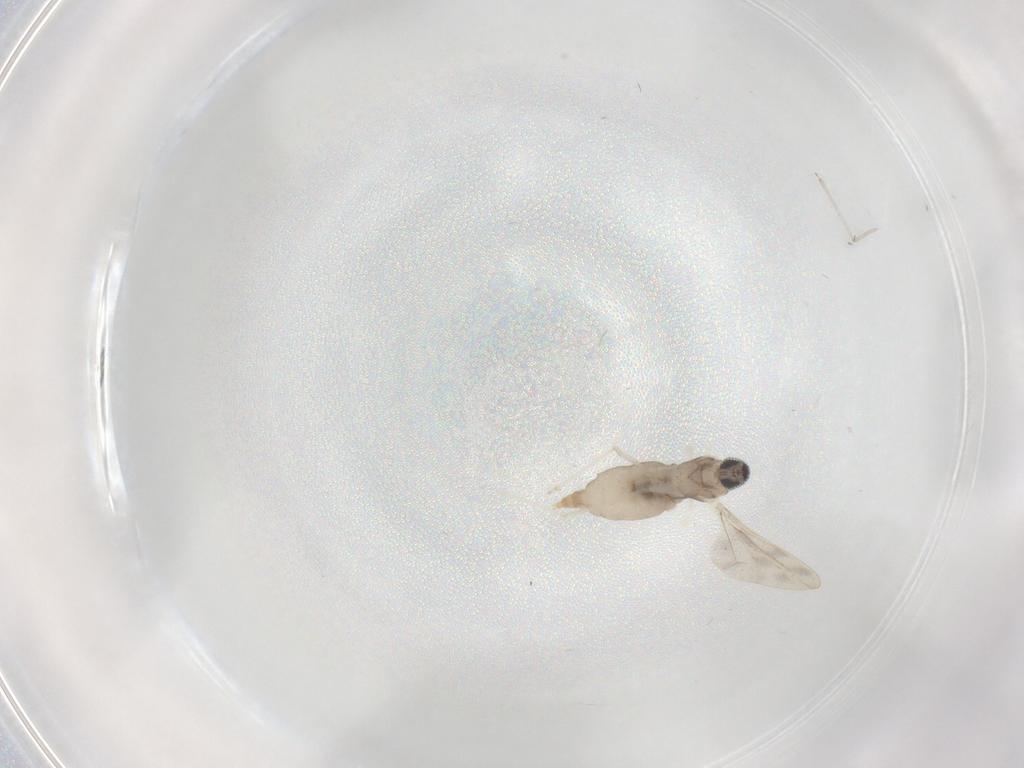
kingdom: Animalia
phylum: Arthropoda
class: Insecta
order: Diptera
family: Cecidomyiidae
